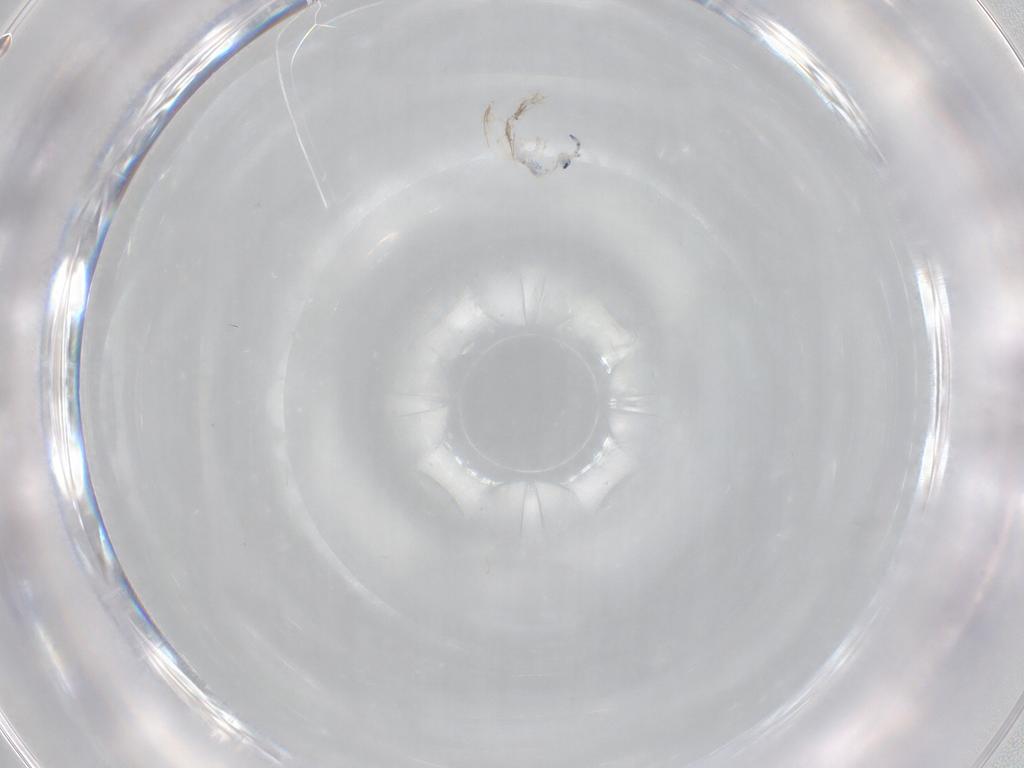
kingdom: Animalia
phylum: Arthropoda
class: Collembola
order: Entomobryomorpha
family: Entomobryidae
